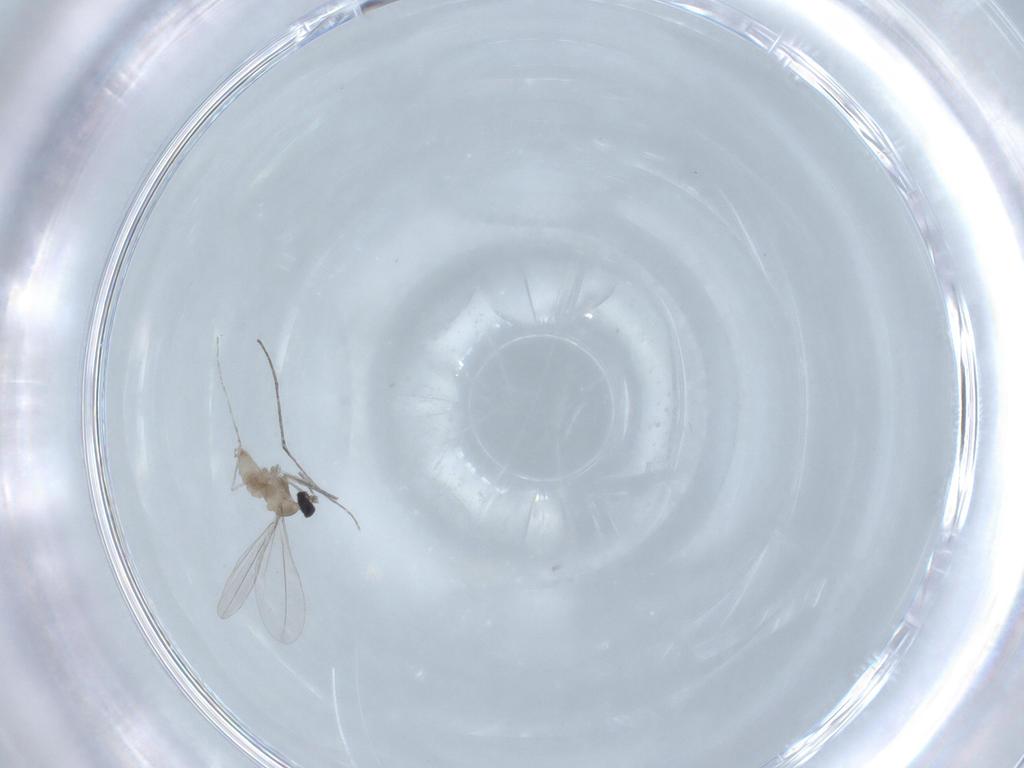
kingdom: Animalia
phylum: Arthropoda
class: Insecta
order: Diptera
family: Cecidomyiidae
